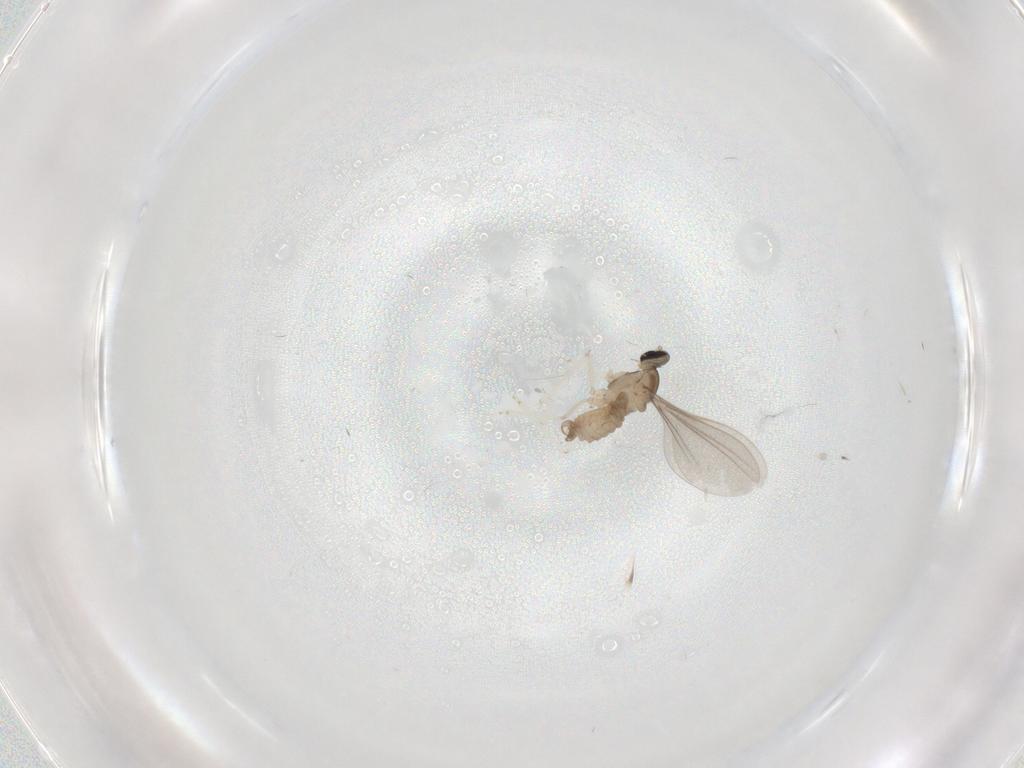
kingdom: Animalia
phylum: Arthropoda
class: Insecta
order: Diptera
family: Cecidomyiidae
